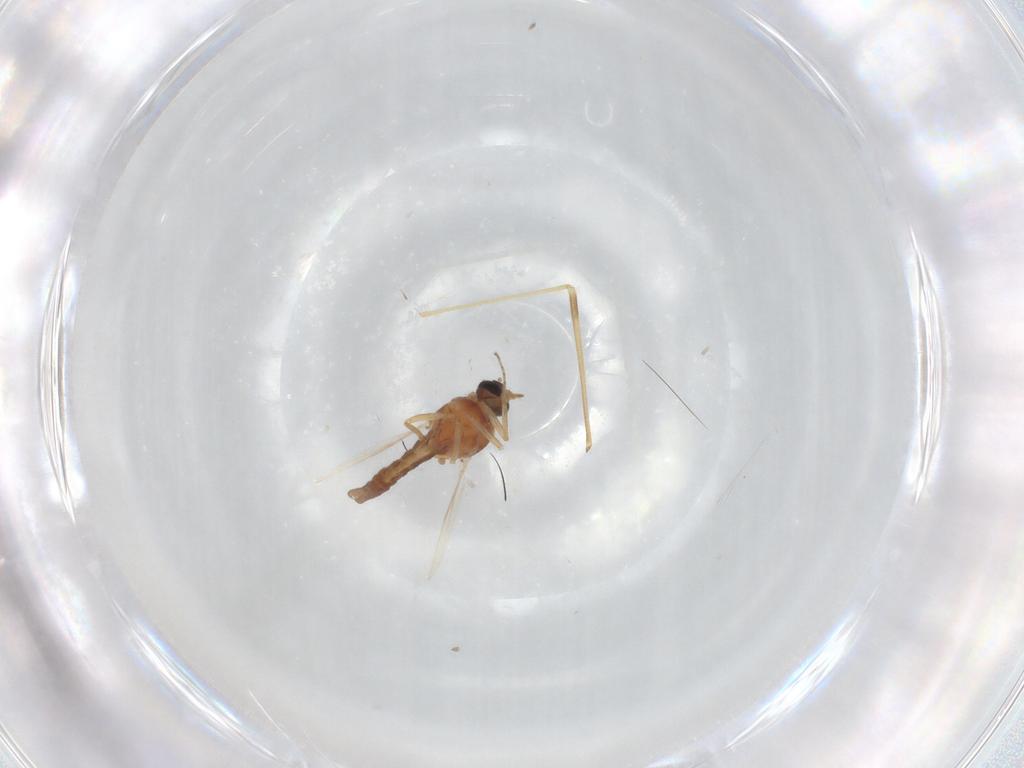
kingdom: Animalia
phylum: Arthropoda
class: Insecta
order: Diptera
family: Limoniidae
